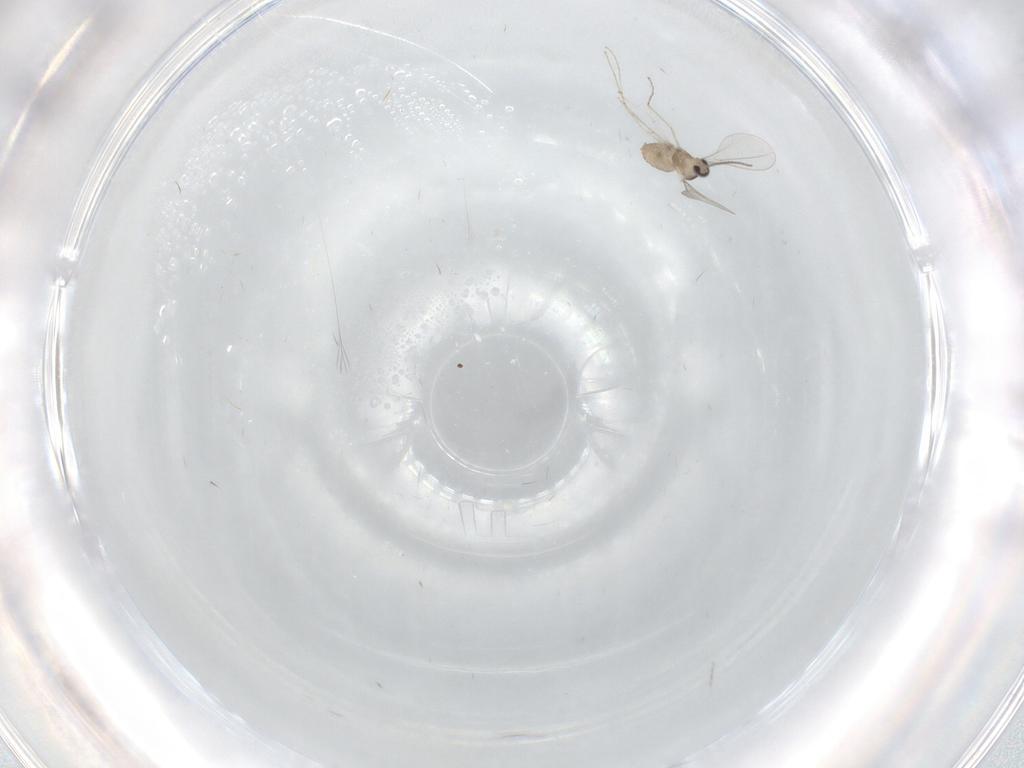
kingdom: Animalia
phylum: Arthropoda
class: Insecta
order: Diptera
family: Cecidomyiidae
